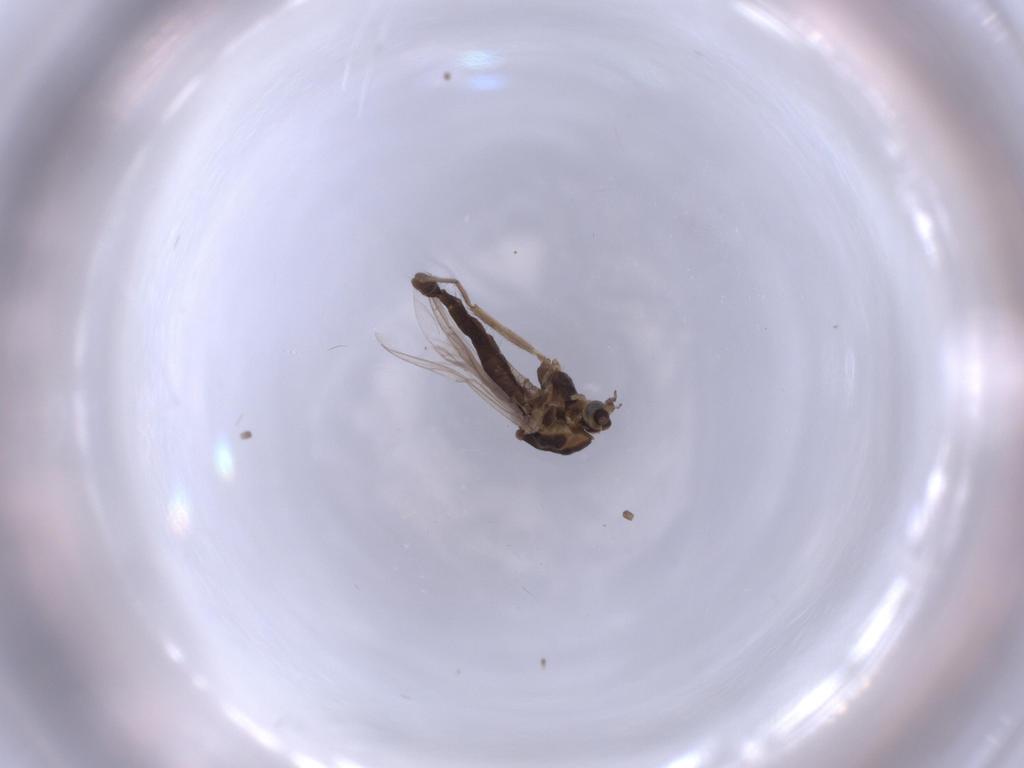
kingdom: Animalia
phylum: Arthropoda
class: Insecta
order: Diptera
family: Chironomidae
